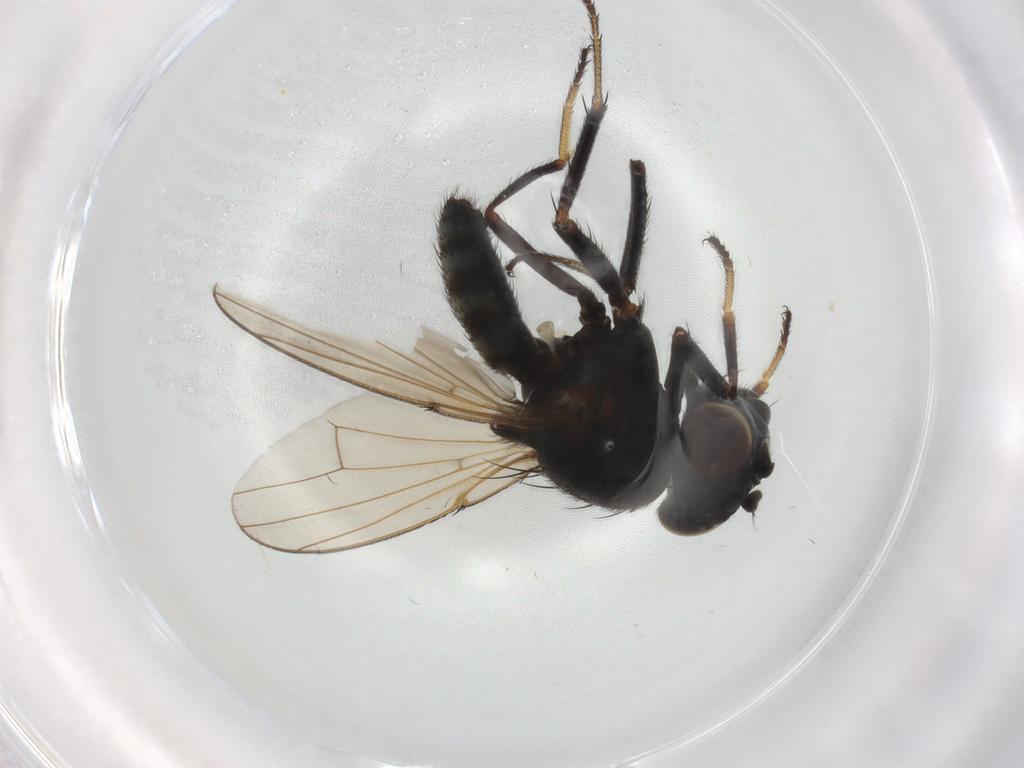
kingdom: Animalia
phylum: Arthropoda
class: Insecta
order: Diptera
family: Ephydridae
